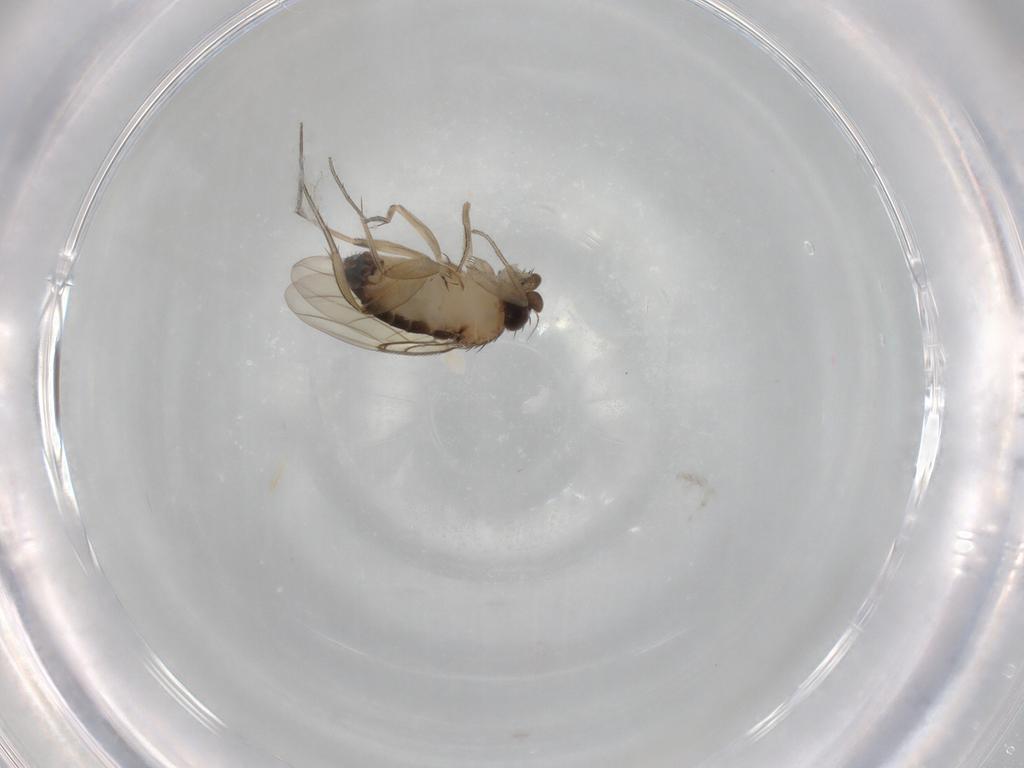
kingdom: Animalia
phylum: Arthropoda
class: Insecta
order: Diptera
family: Phoridae
